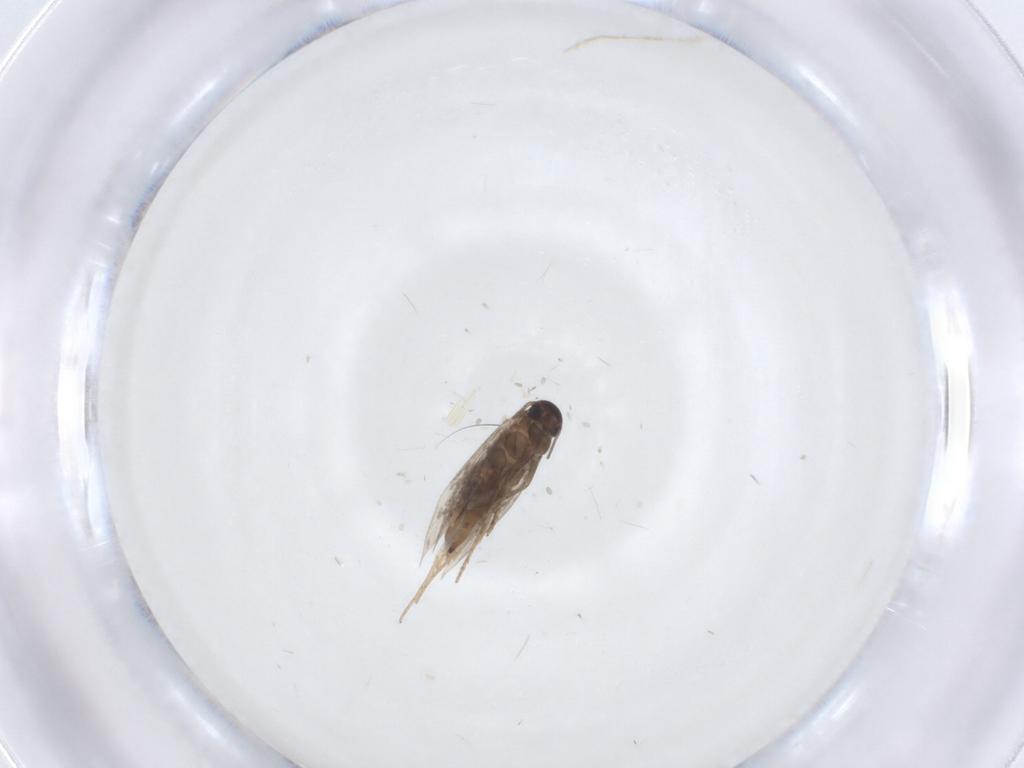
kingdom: Animalia
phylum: Arthropoda
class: Insecta
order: Lepidoptera
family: Heliozelidae
